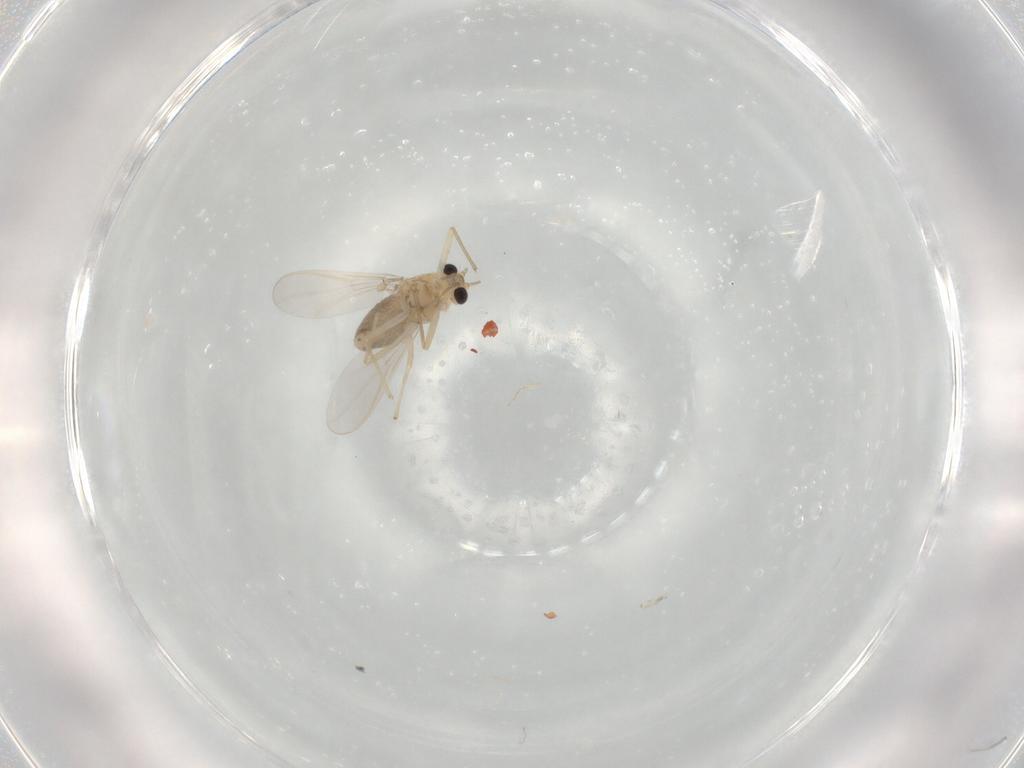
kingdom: Animalia
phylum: Arthropoda
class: Insecta
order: Diptera
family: Chironomidae
